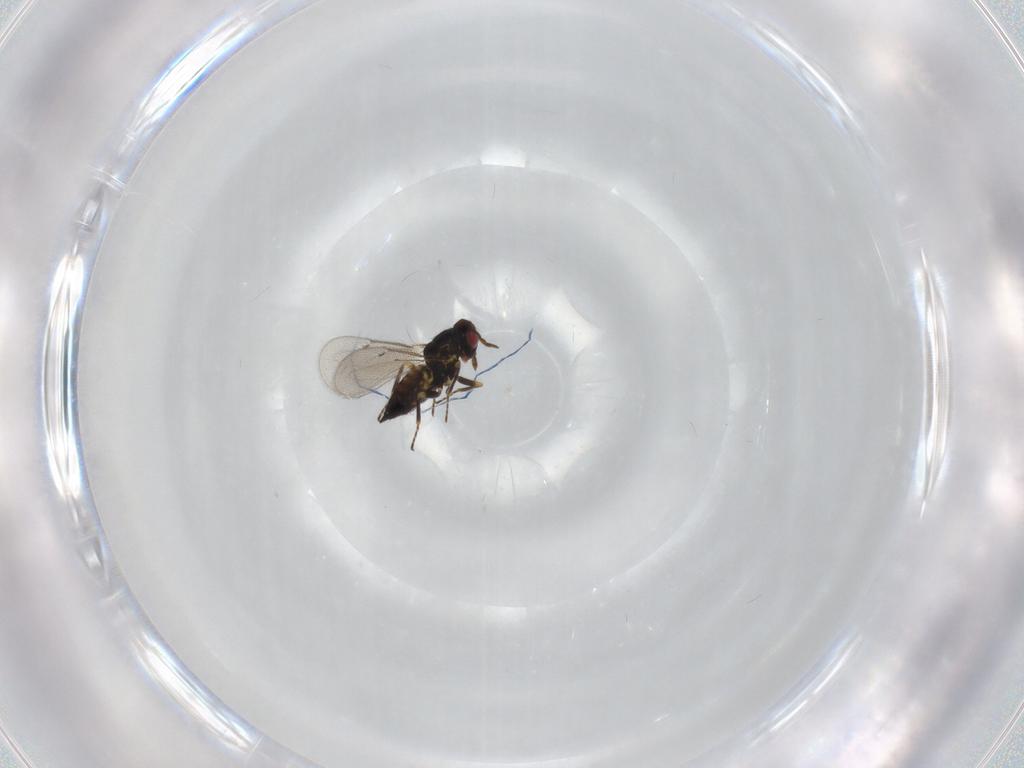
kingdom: Animalia
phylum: Arthropoda
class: Insecta
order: Hymenoptera
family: Eulophidae
